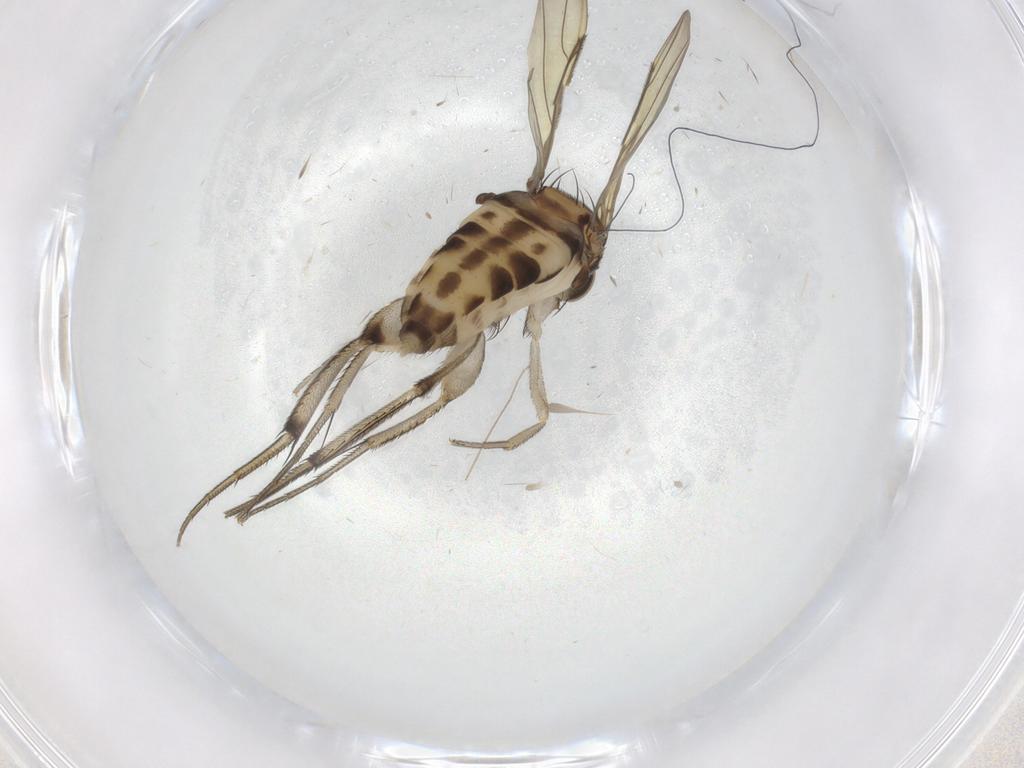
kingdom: Animalia
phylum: Arthropoda
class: Insecta
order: Diptera
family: Phoridae
